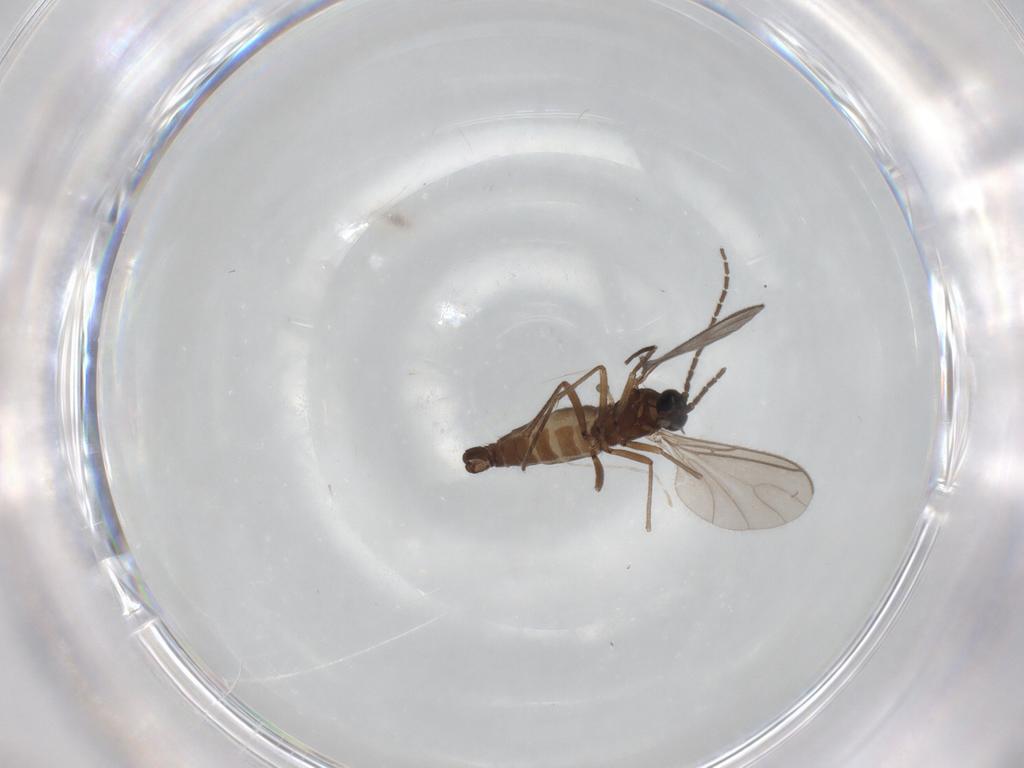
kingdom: Animalia
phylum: Arthropoda
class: Insecta
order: Diptera
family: Sciaridae
